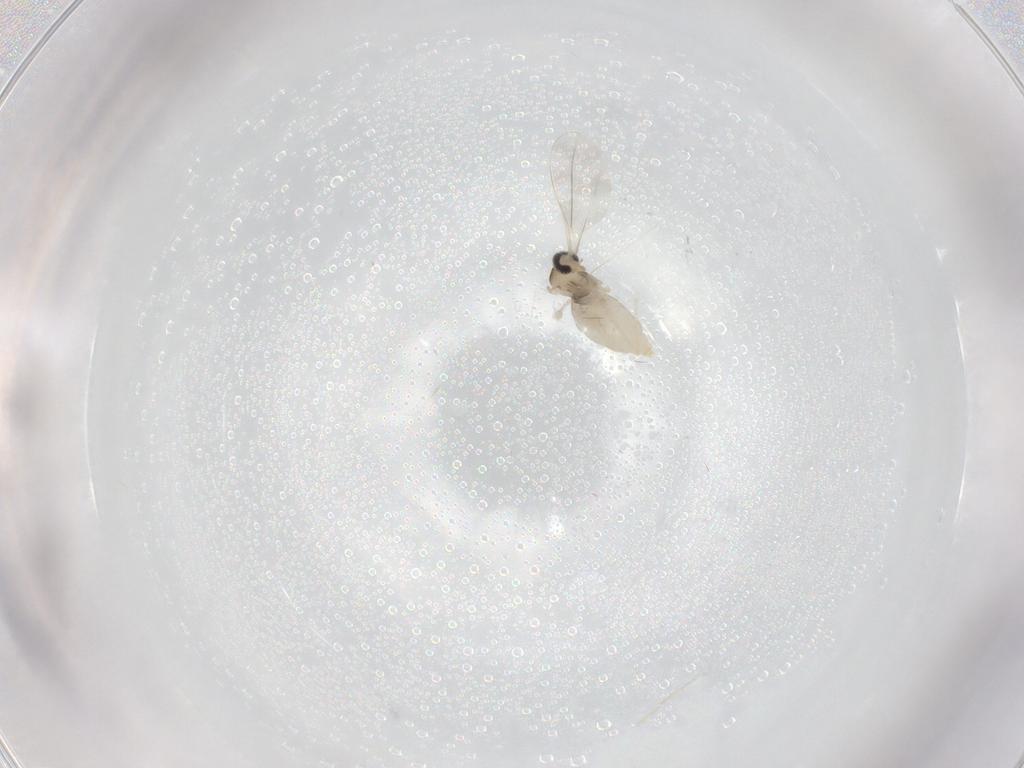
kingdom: Animalia
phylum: Arthropoda
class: Insecta
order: Diptera
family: Cecidomyiidae
